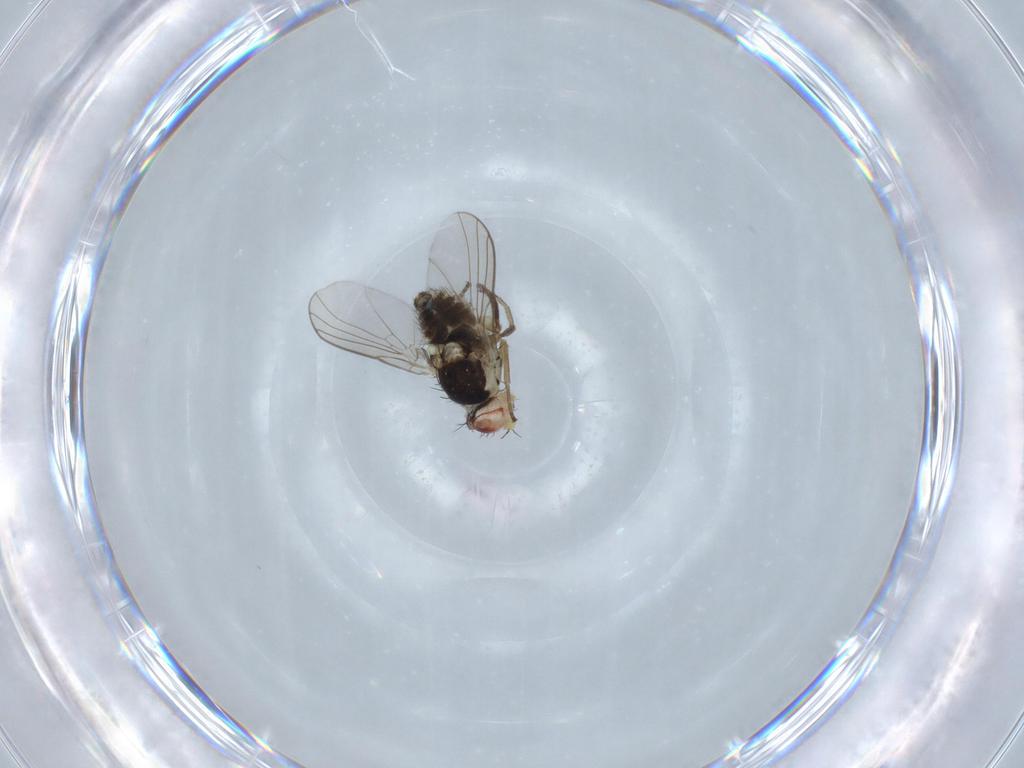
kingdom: Animalia
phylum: Arthropoda
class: Insecta
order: Diptera
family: Agromyzidae
